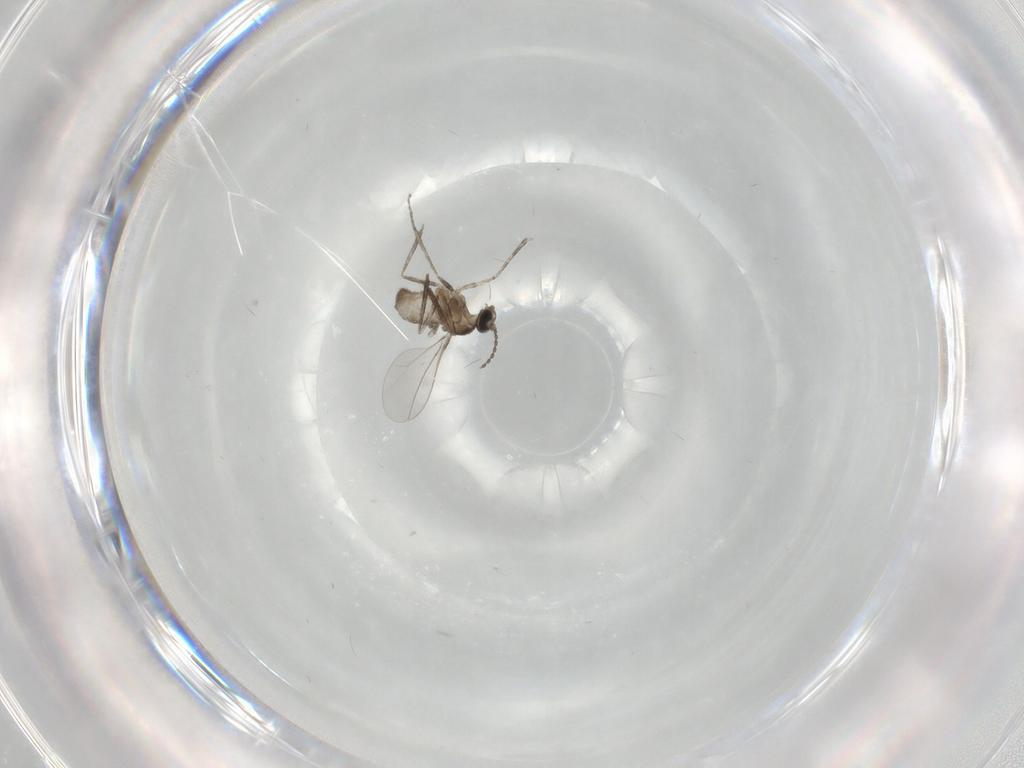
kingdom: Animalia
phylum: Arthropoda
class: Insecta
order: Diptera
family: Cecidomyiidae
